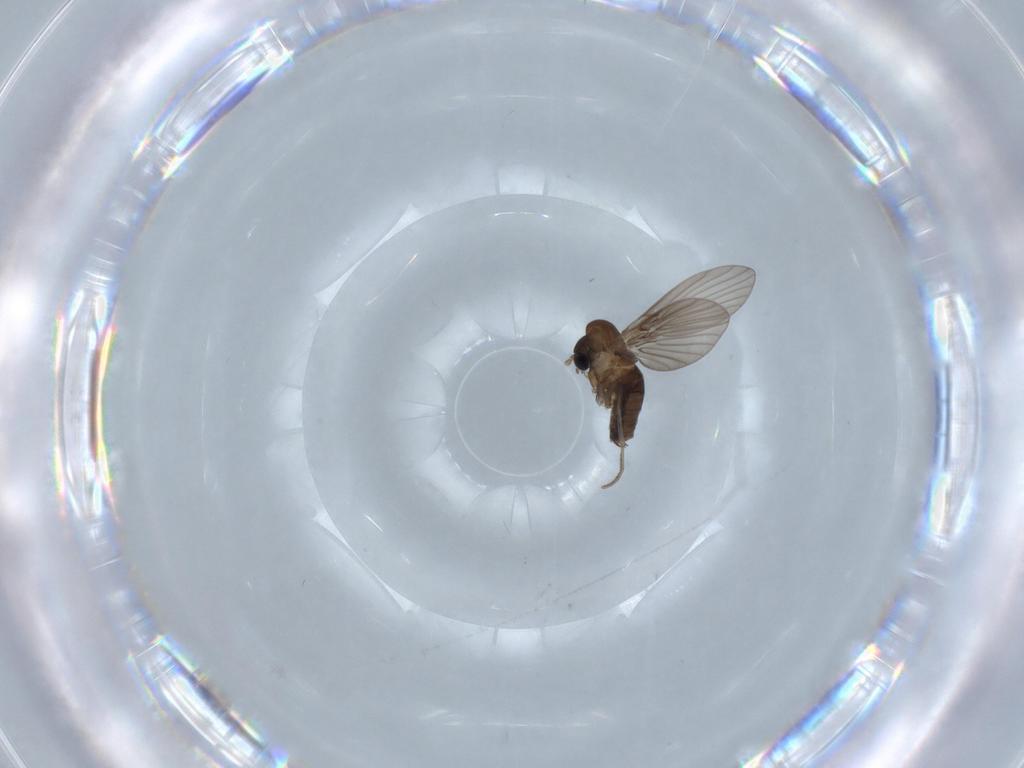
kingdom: Animalia
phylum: Arthropoda
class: Insecta
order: Diptera
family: Psychodidae
